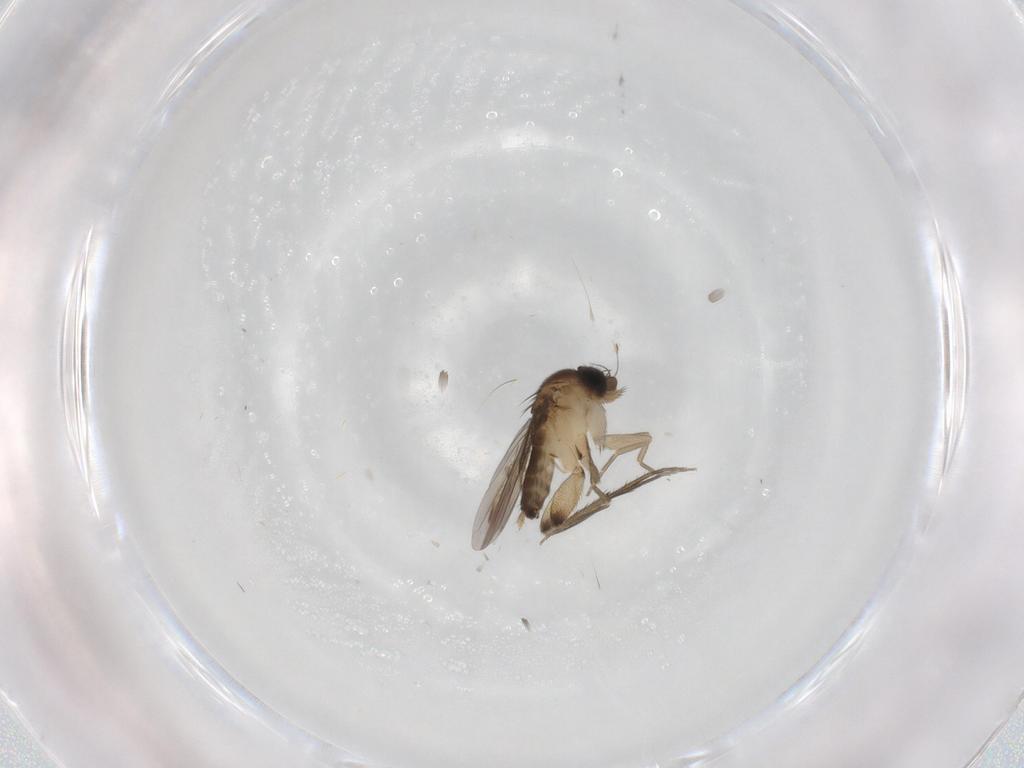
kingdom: Animalia
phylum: Arthropoda
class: Insecta
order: Diptera
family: Phoridae
